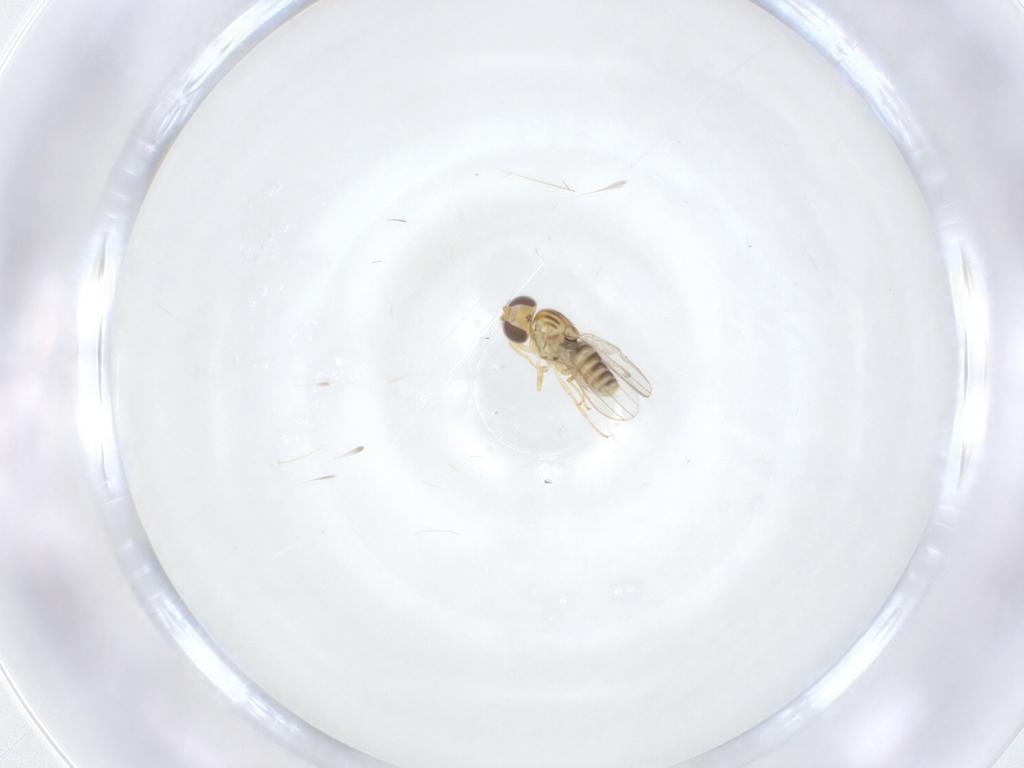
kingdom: Animalia
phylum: Arthropoda
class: Insecta
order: Diptera
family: Chyromyidae
